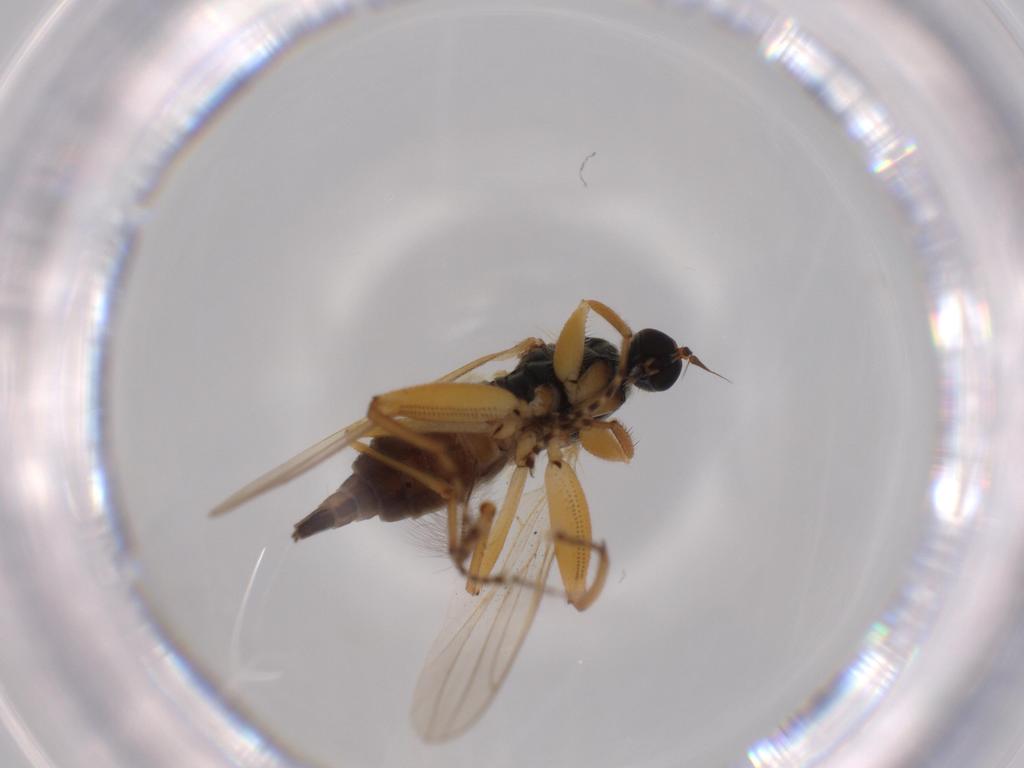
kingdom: Animalia
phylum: Arthropoda
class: Insecta
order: Diptera
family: Hybotidae
